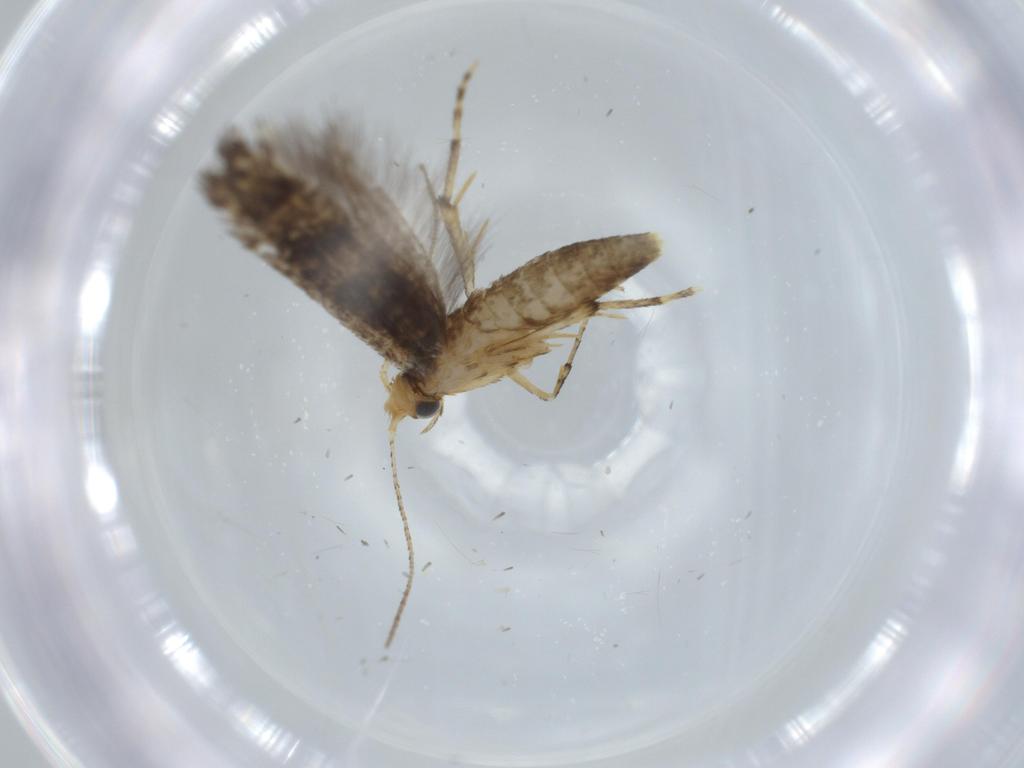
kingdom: Animalia
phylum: Arthropoda
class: Insecta
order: Lepidoptera
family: Argyresthiidae
